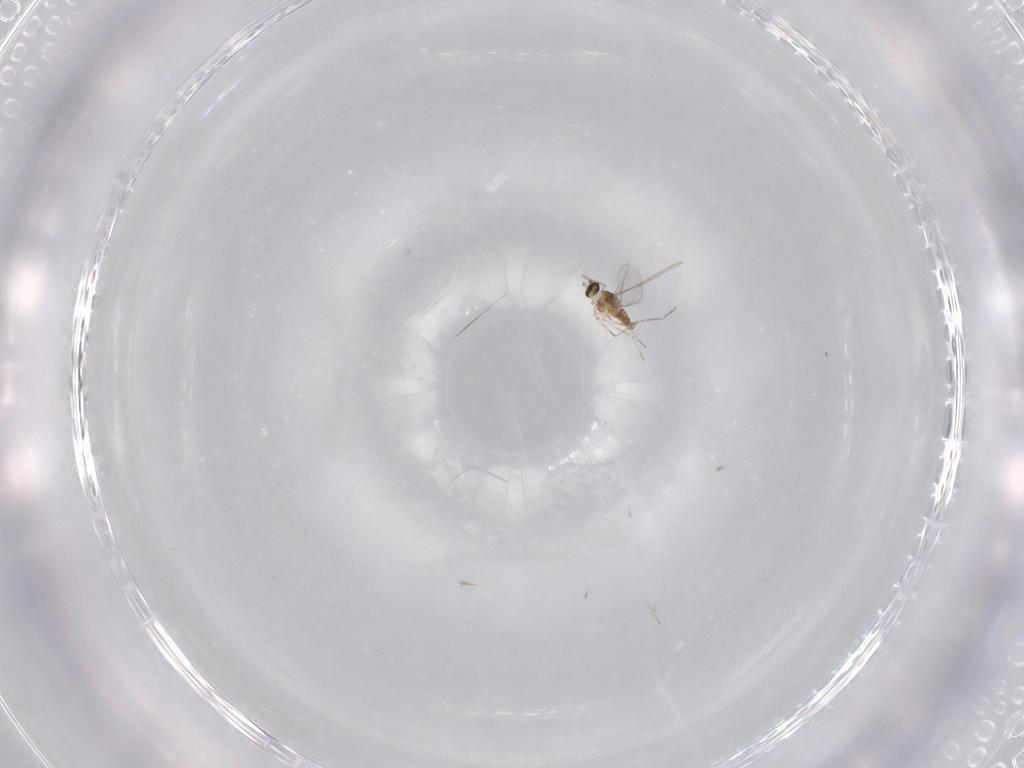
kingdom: Animalia
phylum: Arthropoda
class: Insecta
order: Diptera
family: Cecidomyiidae
